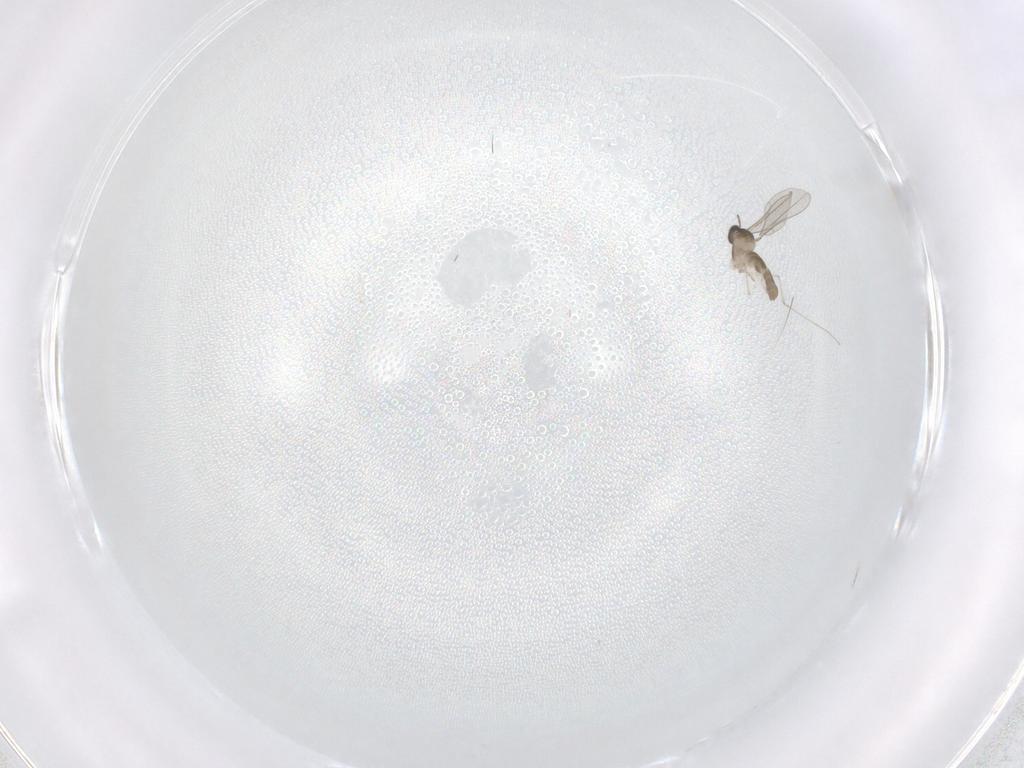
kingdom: Animalia
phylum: Arthropoda
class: Insecta
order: Diptera
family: Cecidomyiidae
